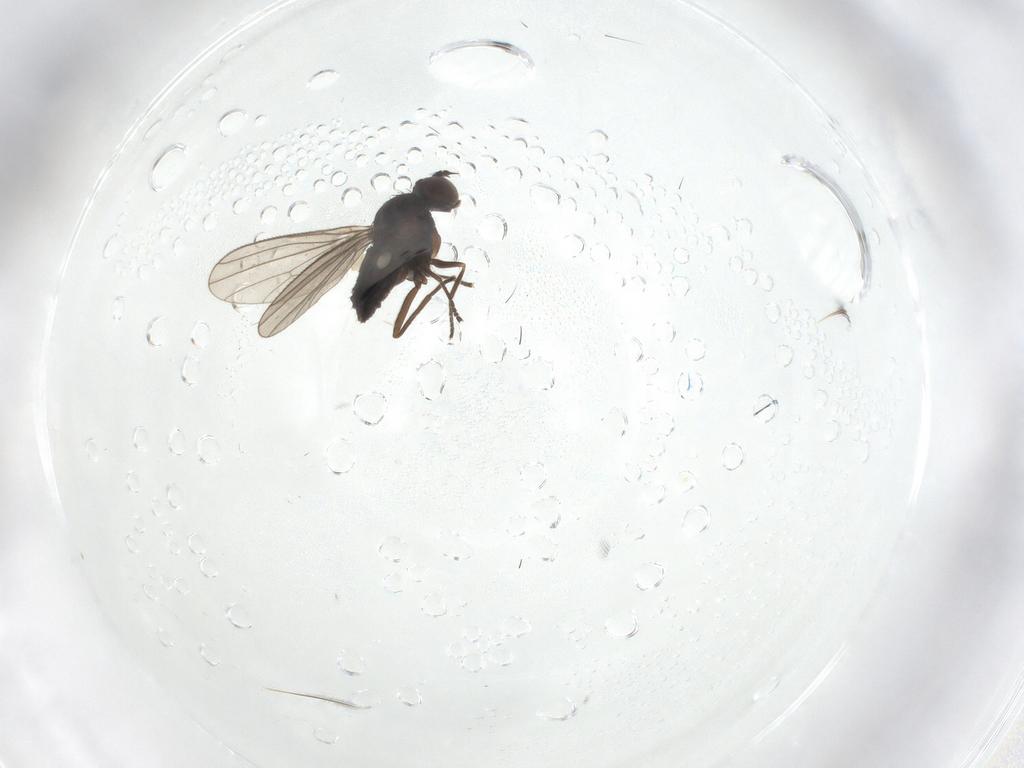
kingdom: Animalia
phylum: Arthropoda
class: Insecta
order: Diptera
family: Dolichopodidae
